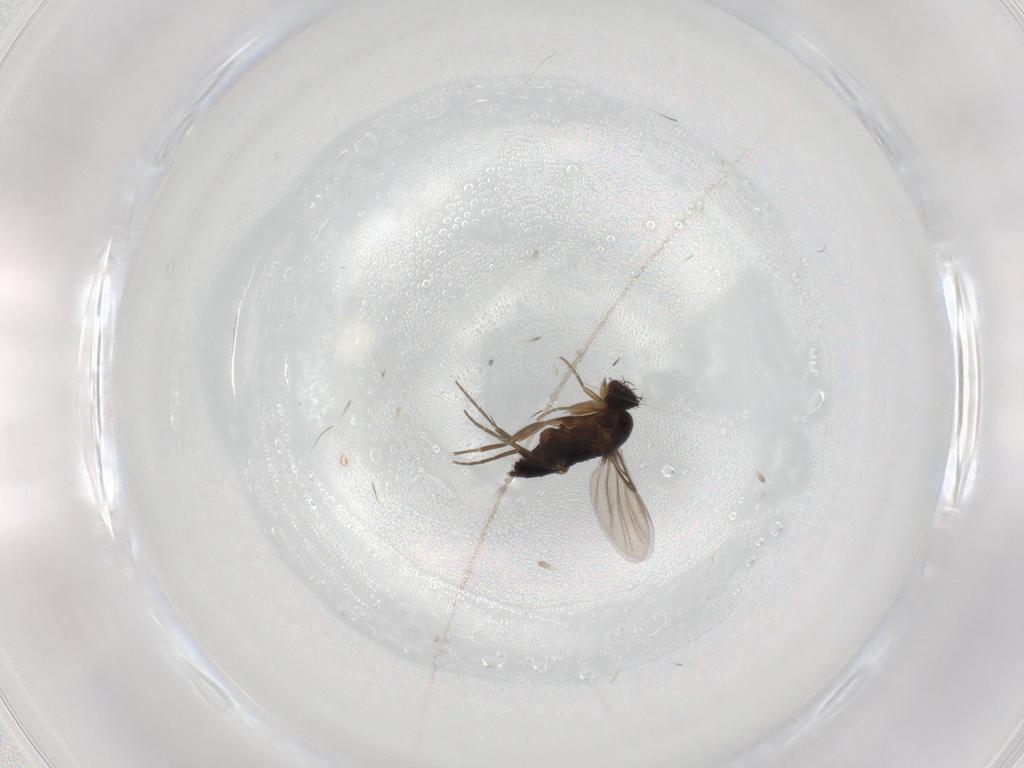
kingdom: Animalia
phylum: Arthropoda
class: Insecta
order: Diptera
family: Phoridae
